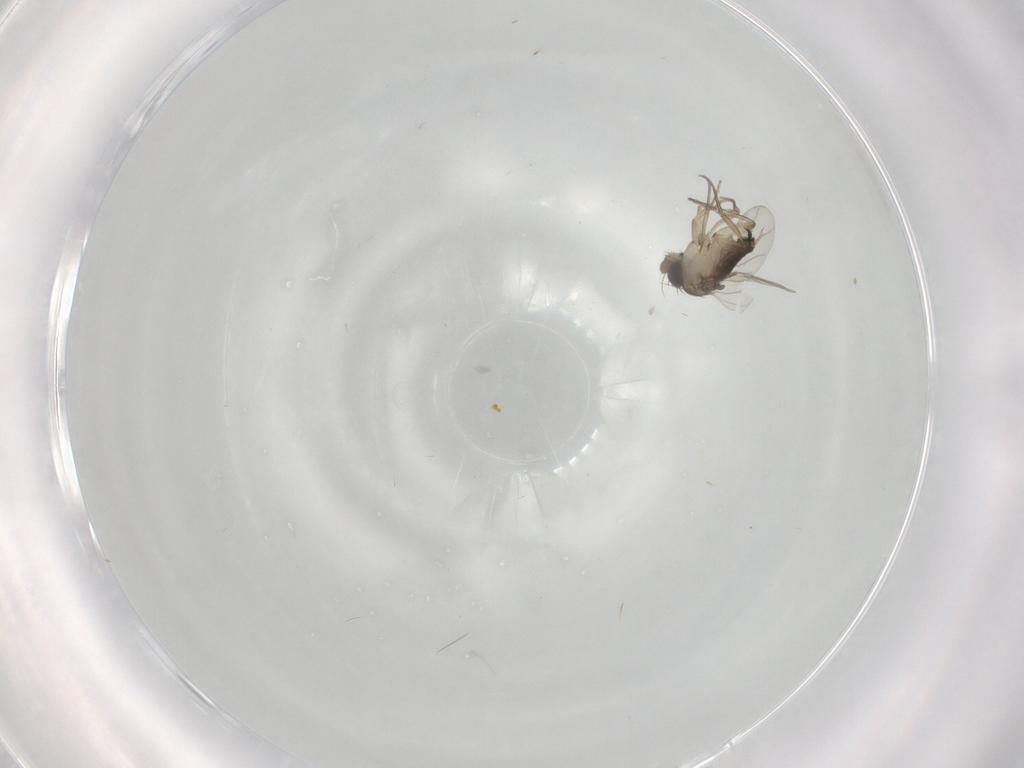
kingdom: Animalia
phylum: Arthropoda
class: Insecta
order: Diptera
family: Phoridae
